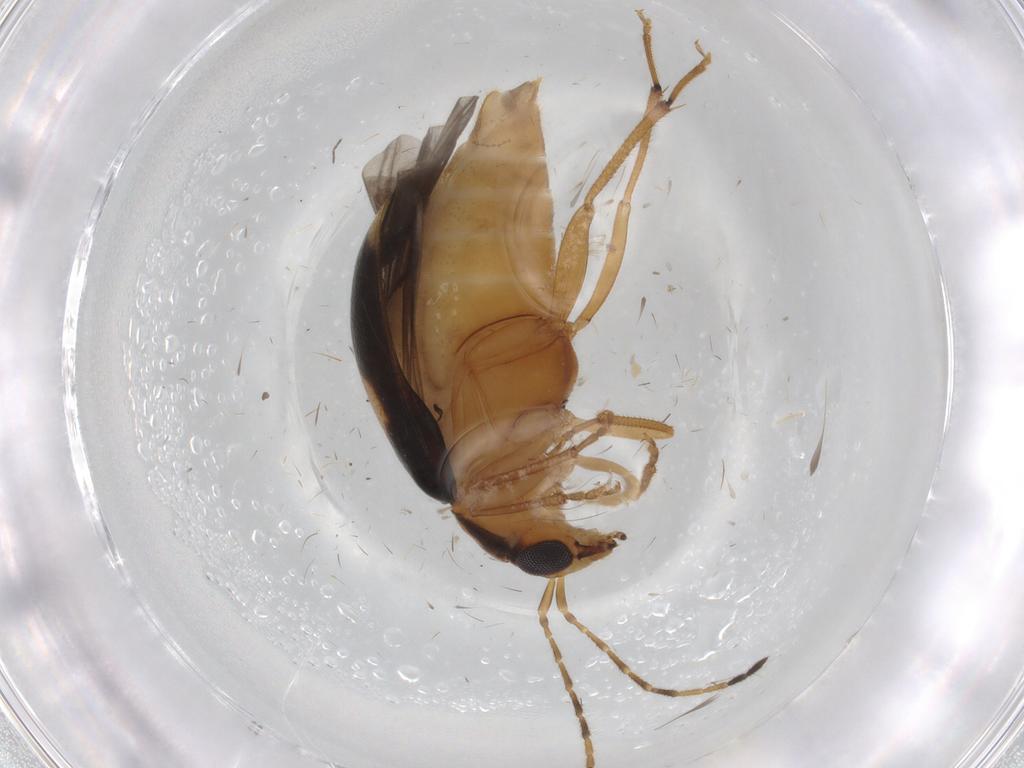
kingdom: Animalia
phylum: Arthropoda
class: Insecta
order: Coleoptera
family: Chrysomelidae
